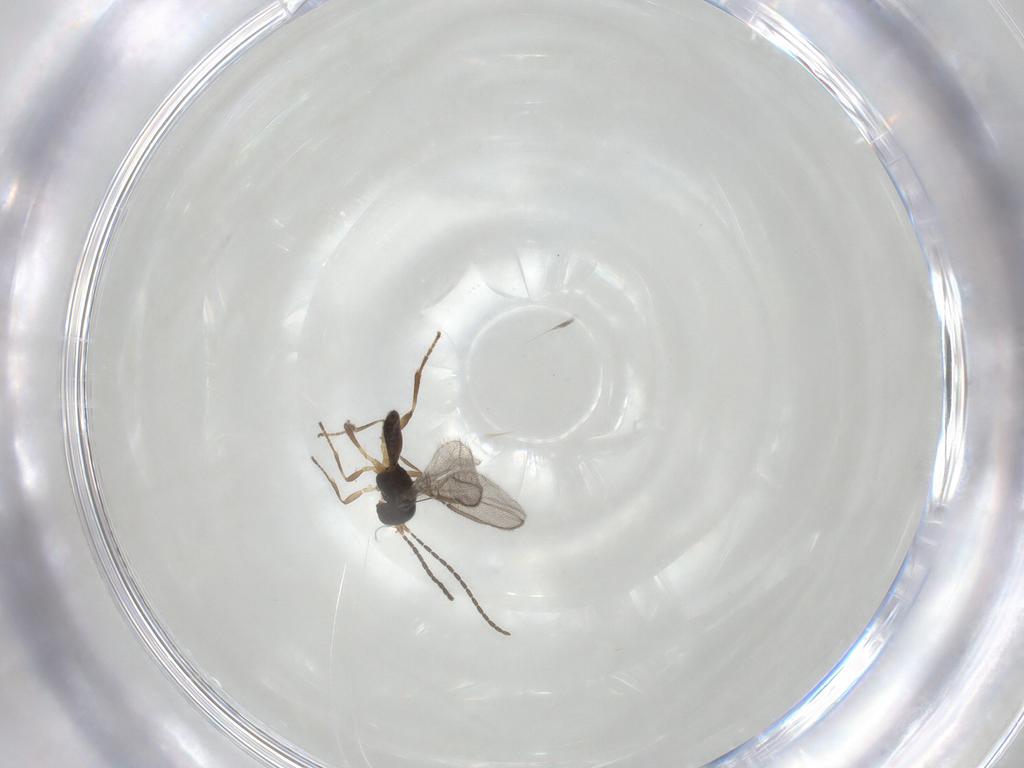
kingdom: Animalia
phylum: Arthropoda
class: Insecta
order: Hymenoptera
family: Braconidae
